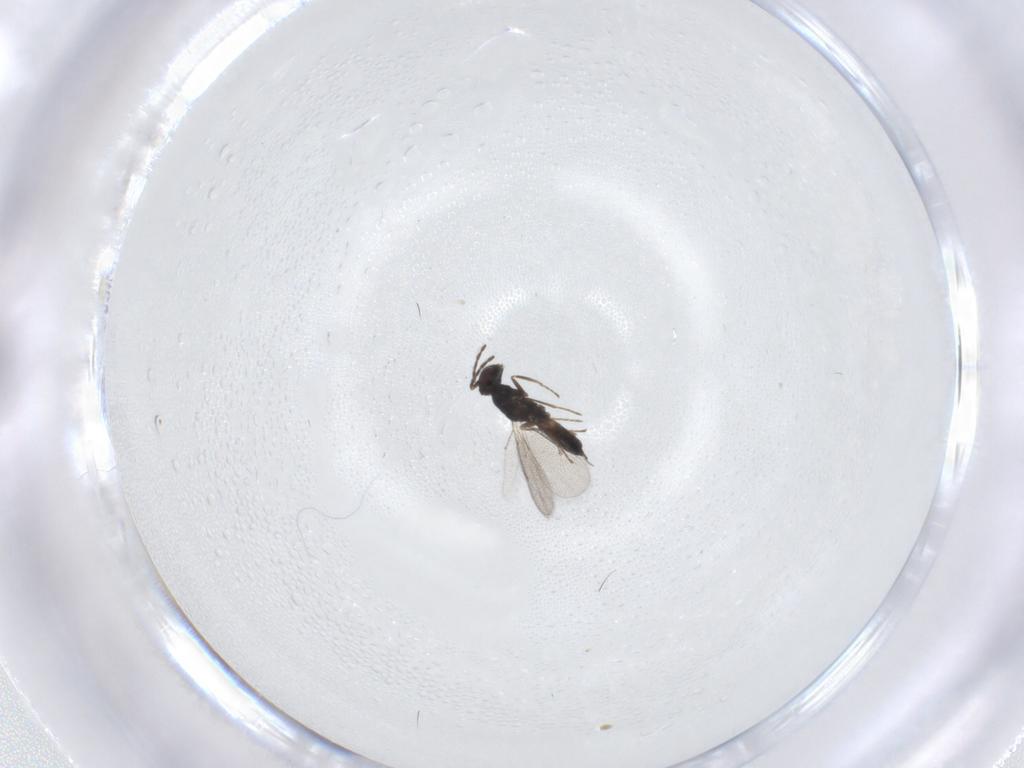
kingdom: Animalia
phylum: Arthropoda
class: Insecta
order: Hymenoptera
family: Eulophidae
